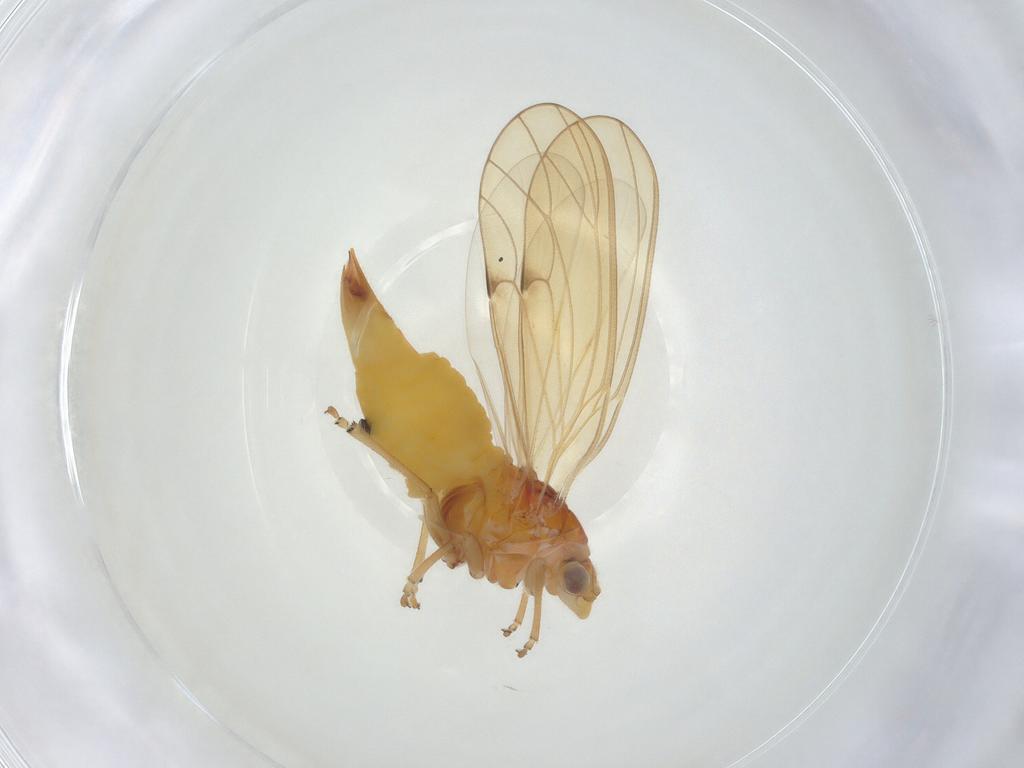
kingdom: Animalia
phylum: Arthropoda
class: Insecta
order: Hemiptera
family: Psylloidea_incertae_sedis
